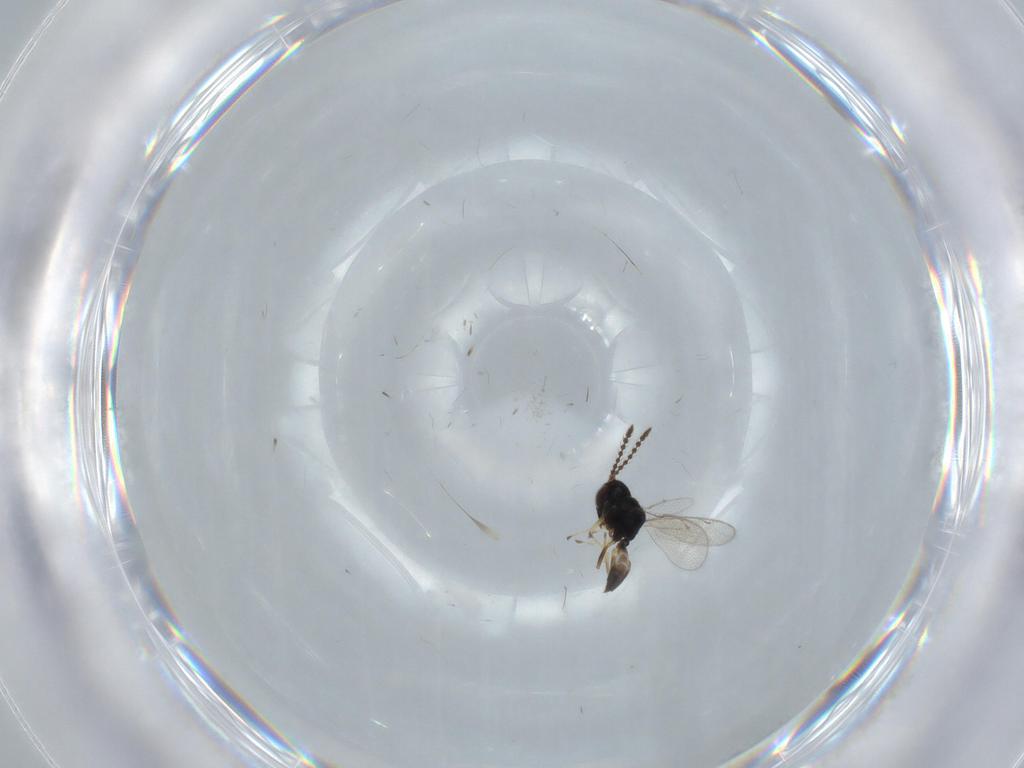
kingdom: Animalia
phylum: Arthropoda
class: Insecta
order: Hymenoptera
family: Pteromalidae
